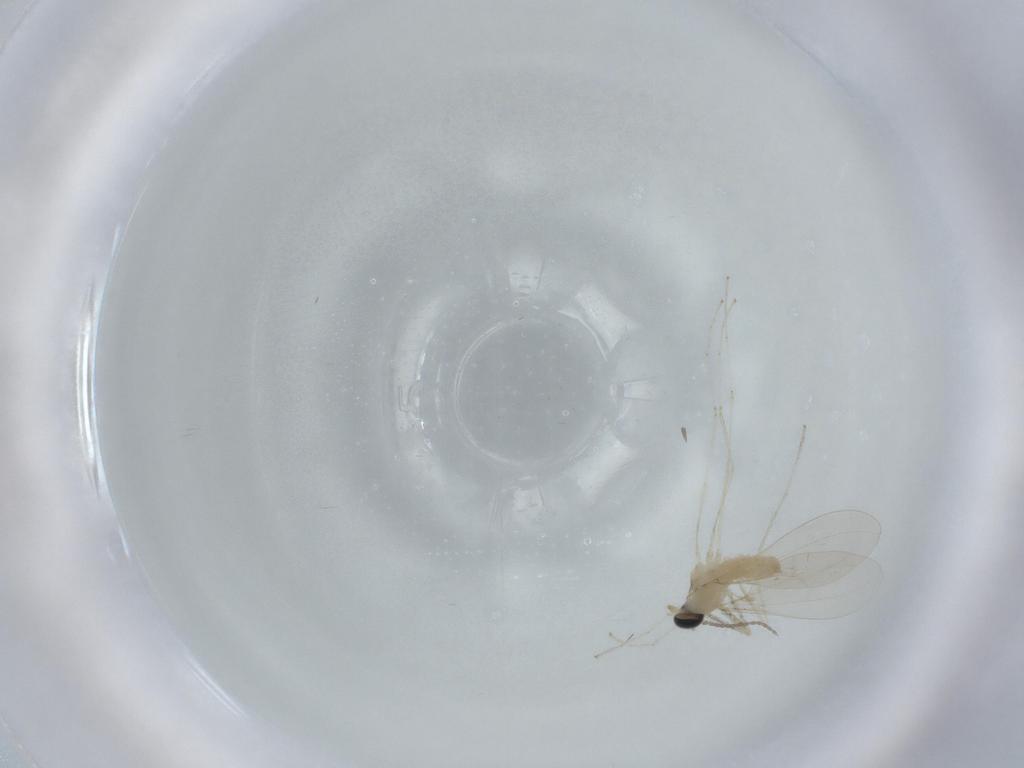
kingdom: Animalia
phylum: Arthropoda
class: Insecta
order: Diptera
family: Cecidomyiidae
